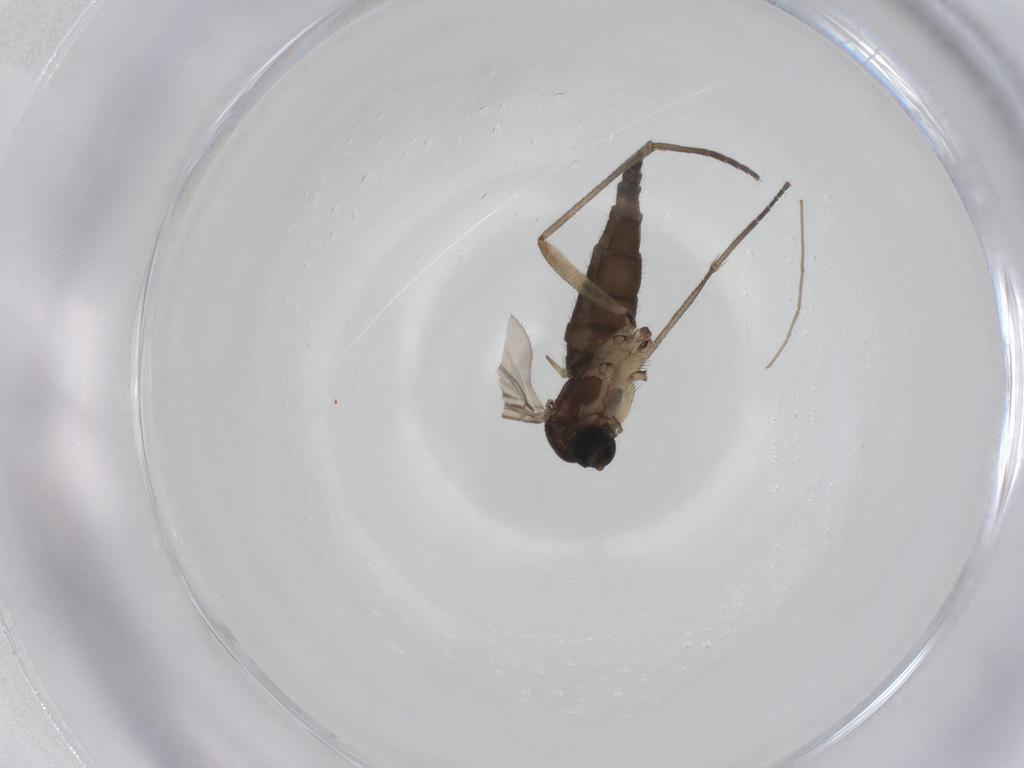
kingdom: Animalia
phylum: Arthropoda
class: Insecta
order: Diptera
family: Sciaridae
